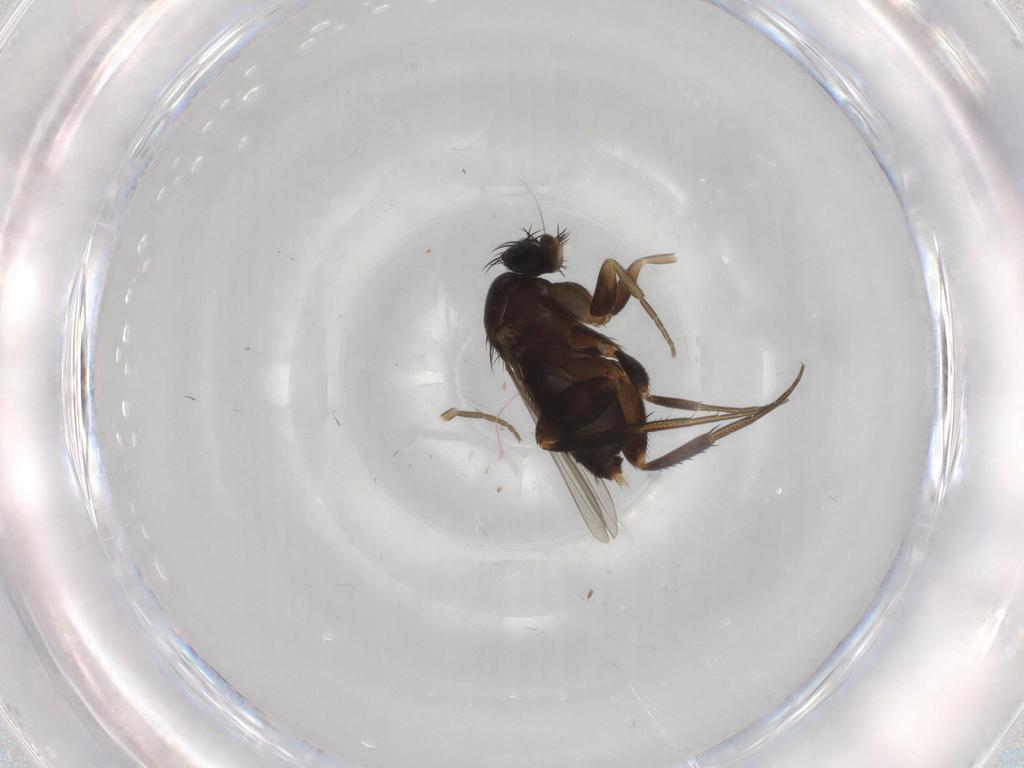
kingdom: Animalia
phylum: Arthropoda
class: Insecta
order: Diptera
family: Phoridae
